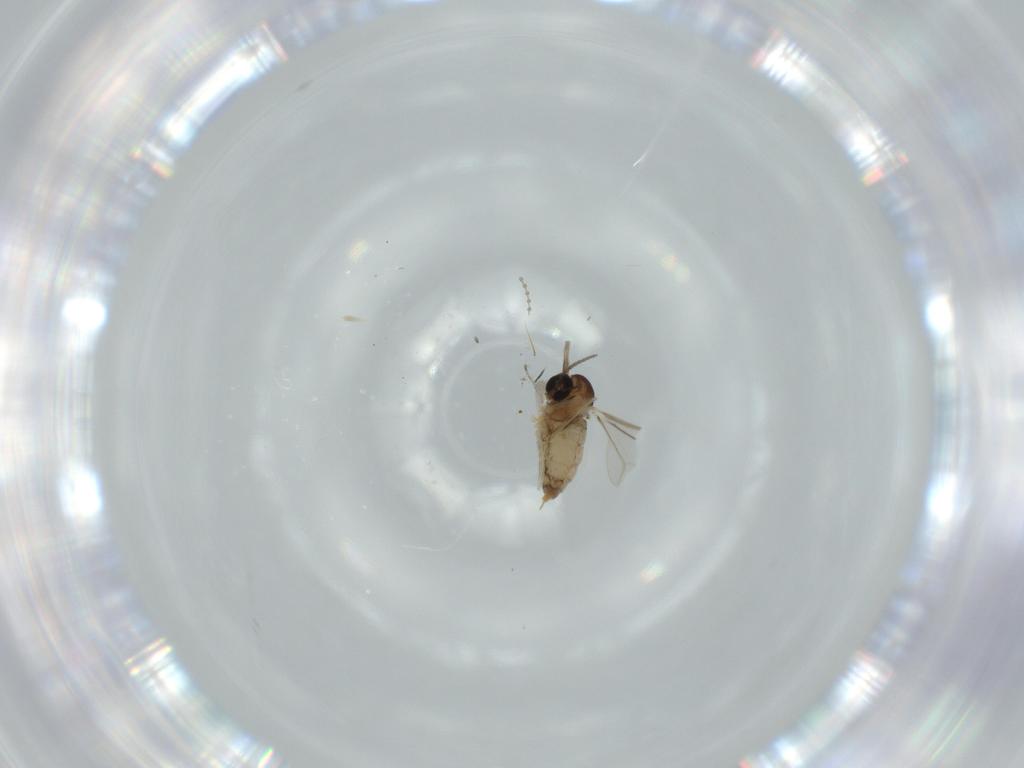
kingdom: Animalia
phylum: Arthropoda
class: Insecta
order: Diptera
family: Cecidomyiidae
